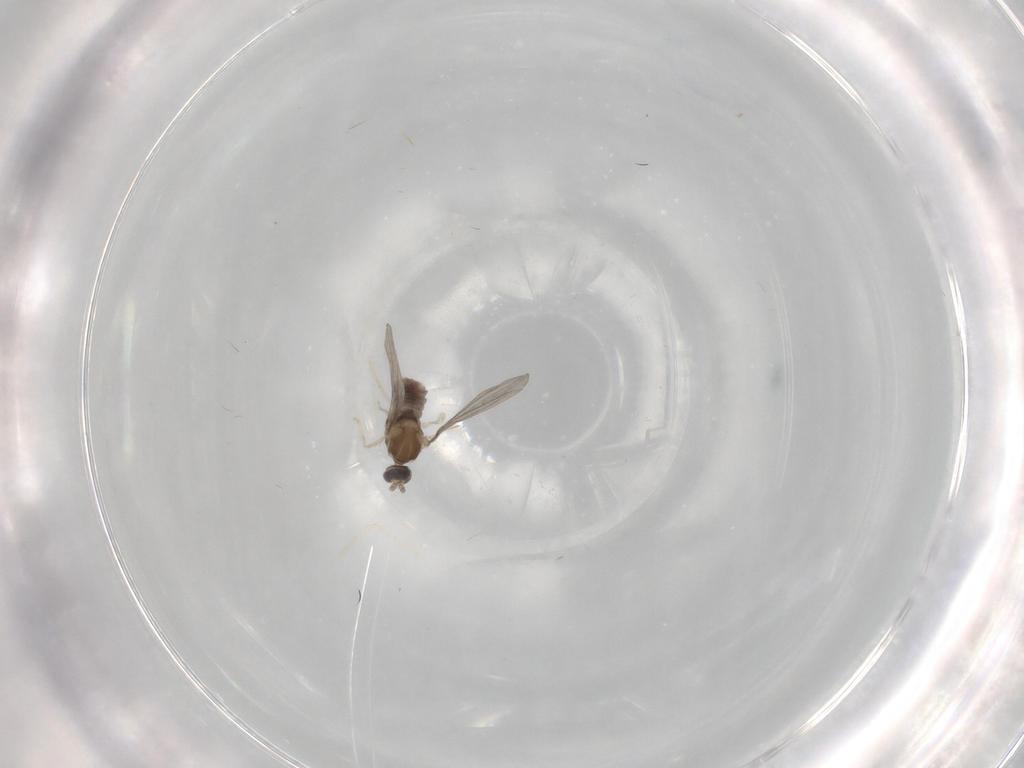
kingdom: Animalia
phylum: Arthropoda
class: Insecta
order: Diptera
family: Cecidomyiidae
